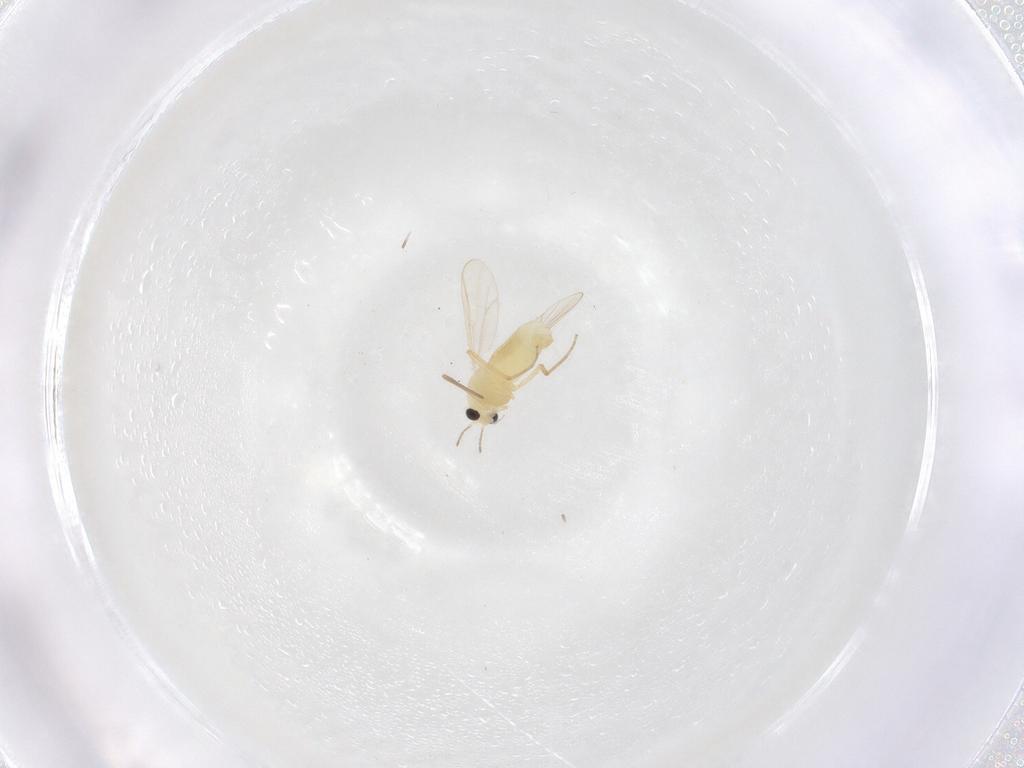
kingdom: Animalia
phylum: Arthropoda
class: Insecta
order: Diptera
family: Chironomidae
